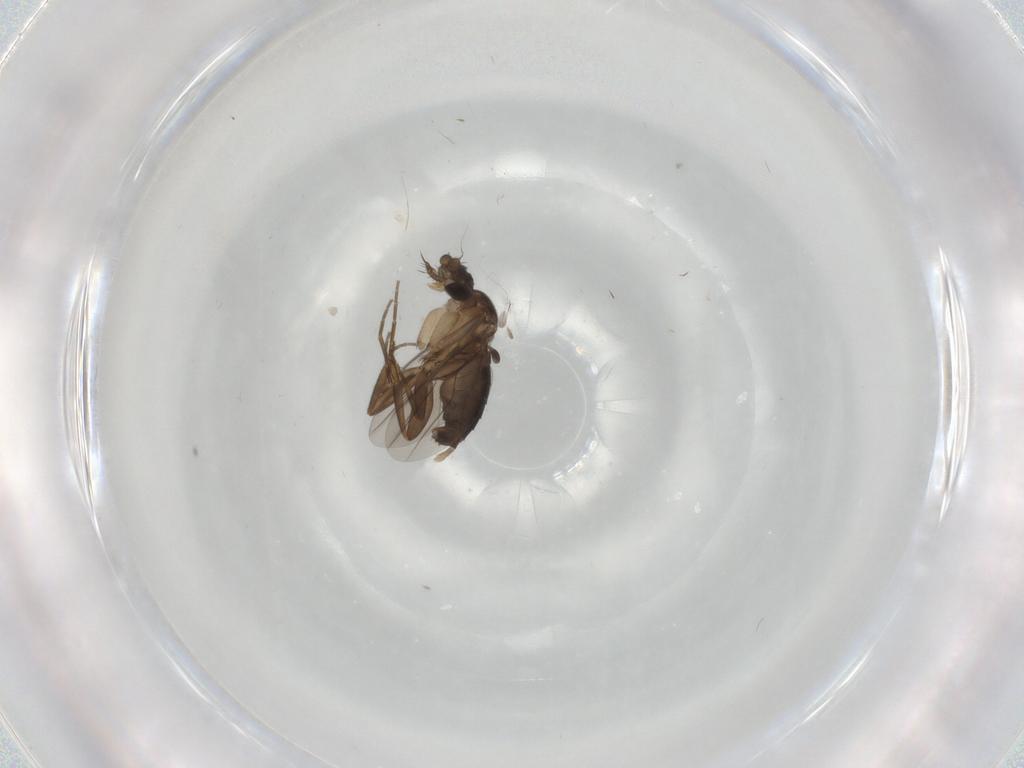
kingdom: Animalia
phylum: Arthropoda
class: Insecta
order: Diptera
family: Phoridae
